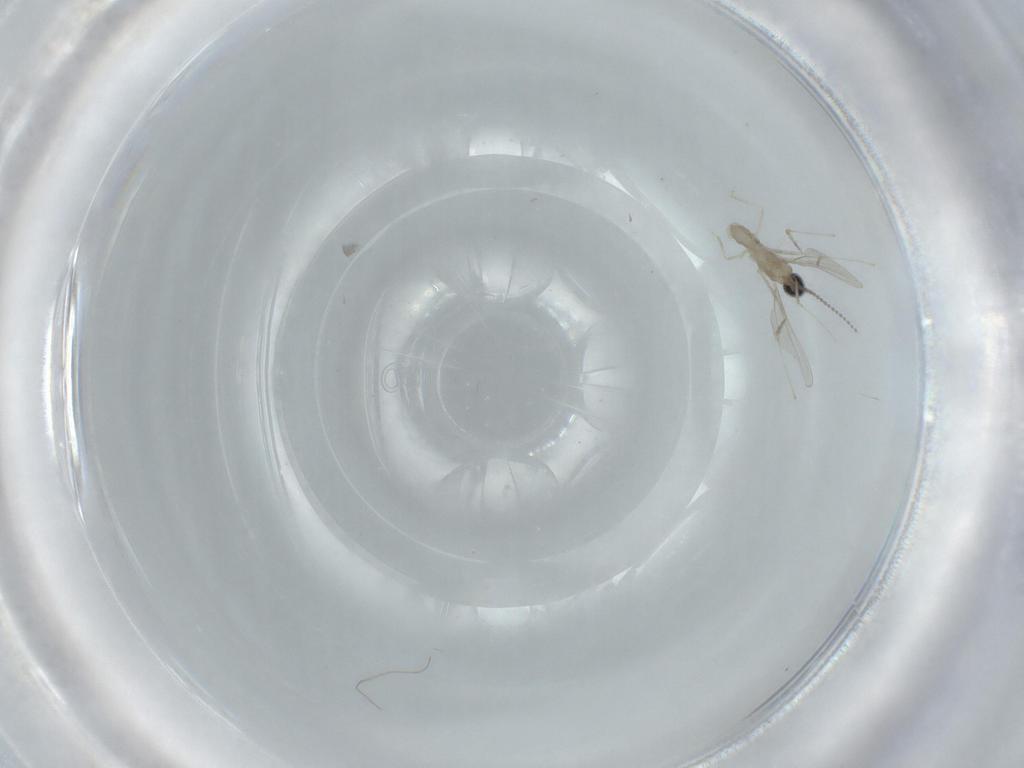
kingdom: Animalia
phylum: Arthropoda
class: Insecta
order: Diptera
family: Cecidomyiidae
